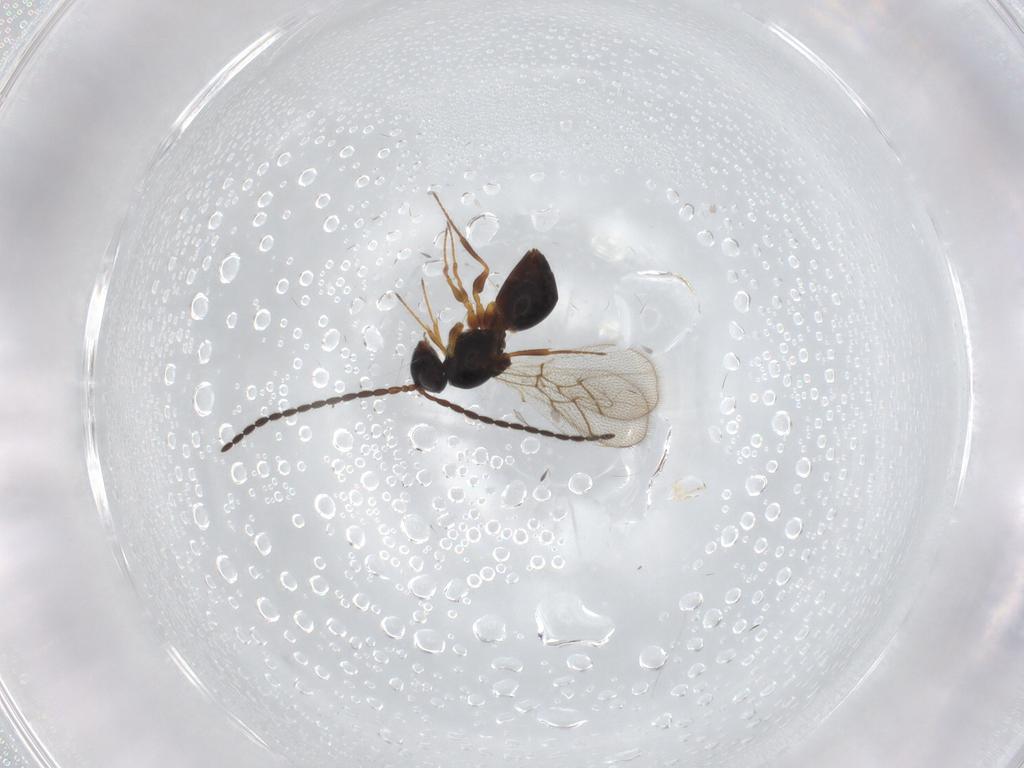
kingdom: Animalia
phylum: Arthropoda
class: Insecta
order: Hymenoptera
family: Figitidae
